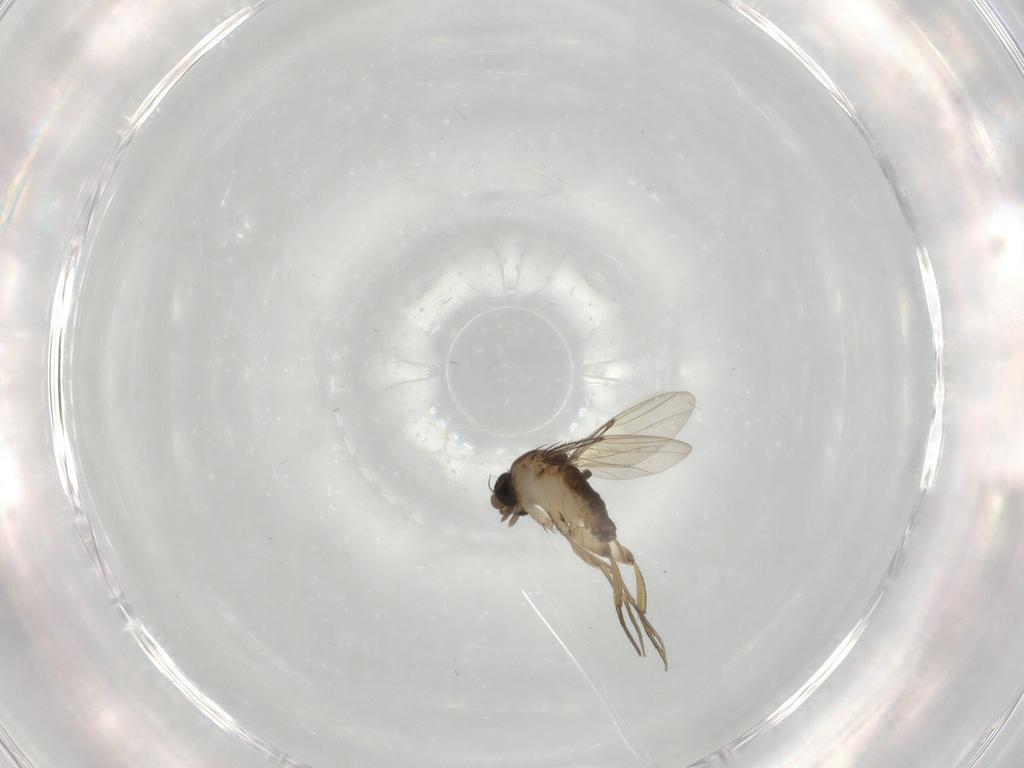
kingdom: Animalia
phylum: Arthropoda
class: Insecta
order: Diptera
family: Phoridae
